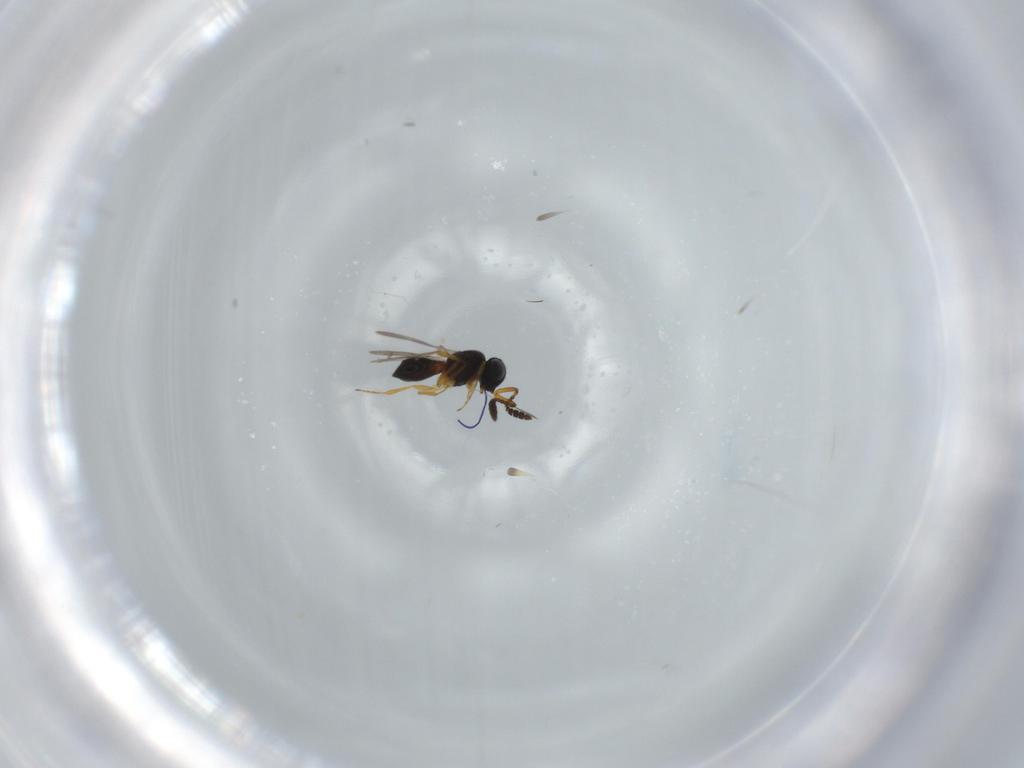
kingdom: Animalia
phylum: Arthropoda
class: Insecta
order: Hymenoptera
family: Scelionidae
